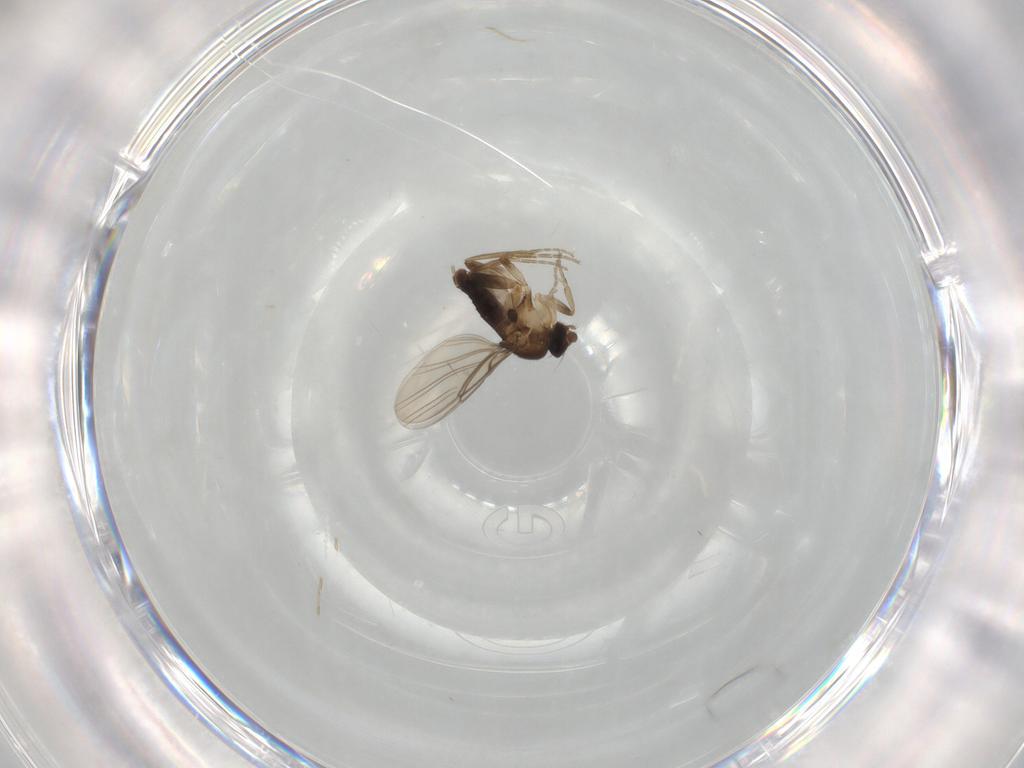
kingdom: Animalia
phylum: Arthropoda
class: Insecta
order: Diptera
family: Phoridae
